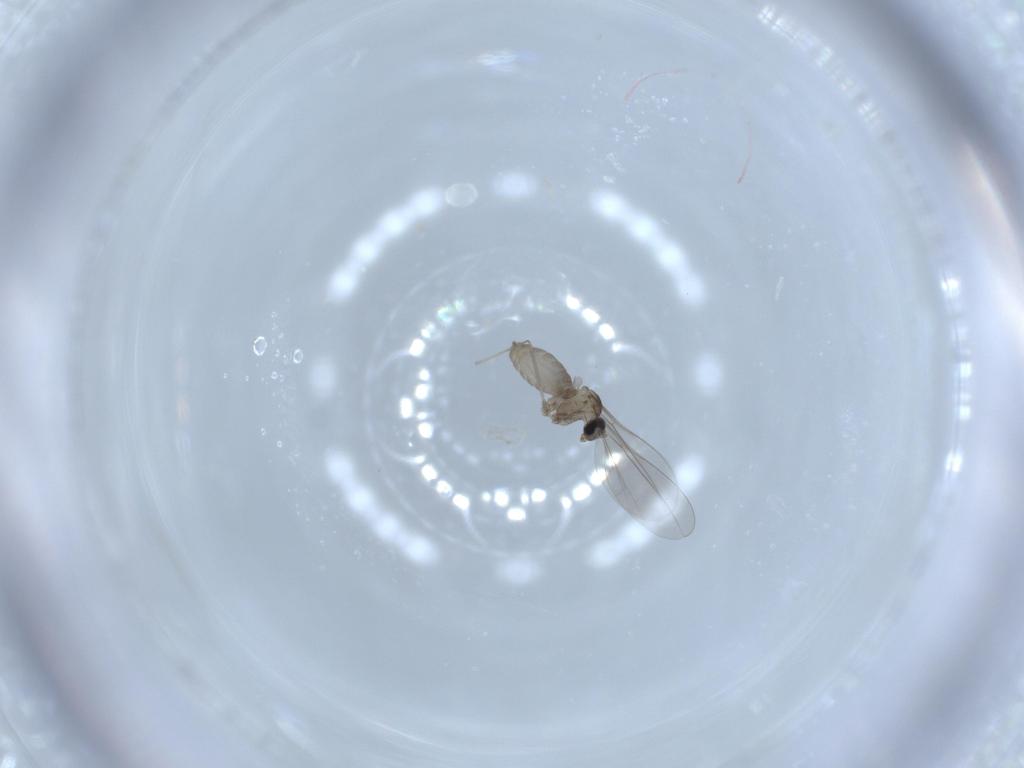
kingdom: Animalia
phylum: Arthropoda
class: Insecta
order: Diptera
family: Cecidomyiidae
